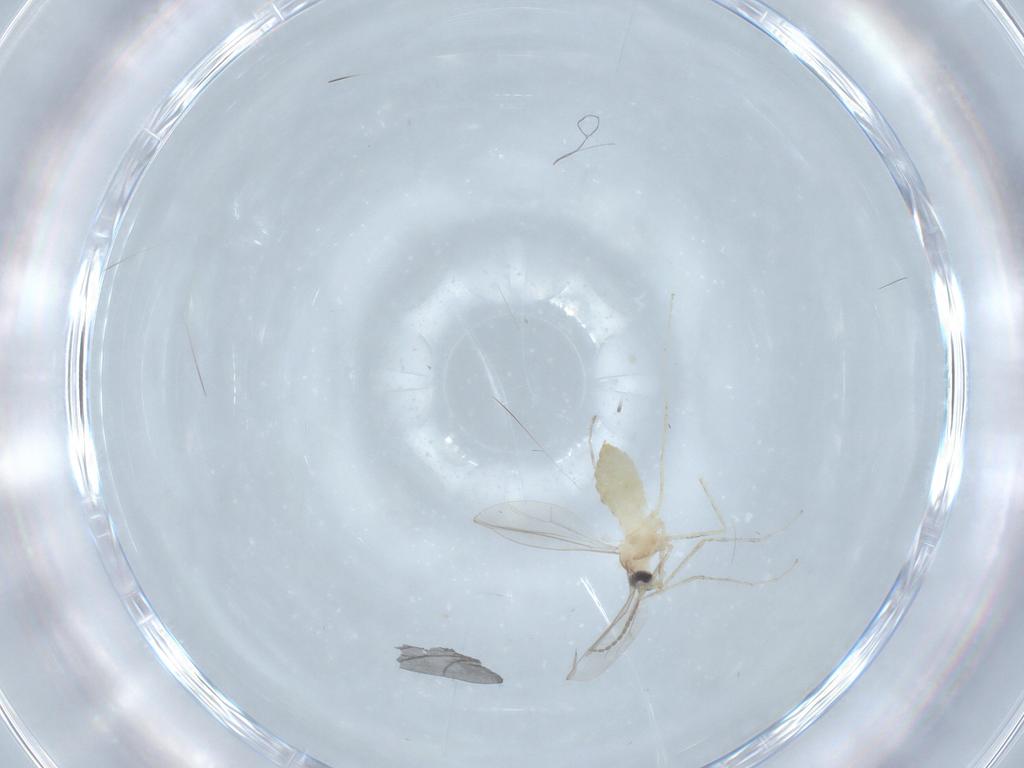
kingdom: Animalia
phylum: Arthropoda
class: Insecta
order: Diptera
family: Cecidomyiidae
